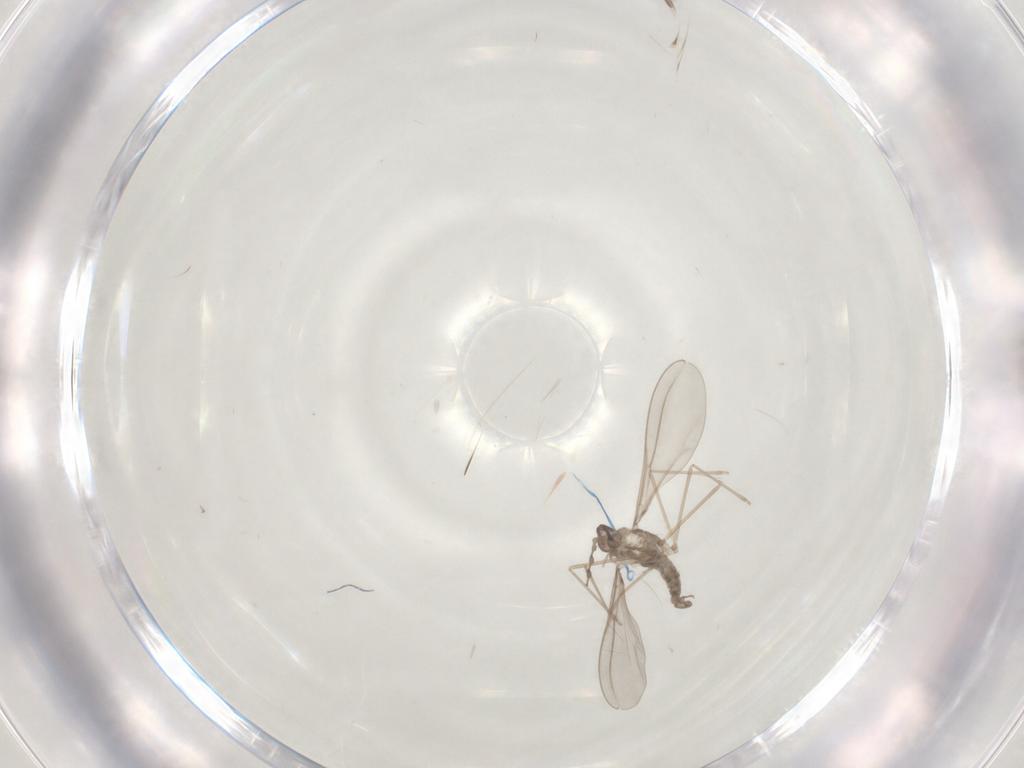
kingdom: Animalia
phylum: Arthropoda
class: Insecta
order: Diptera
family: Cecidomyiidae
